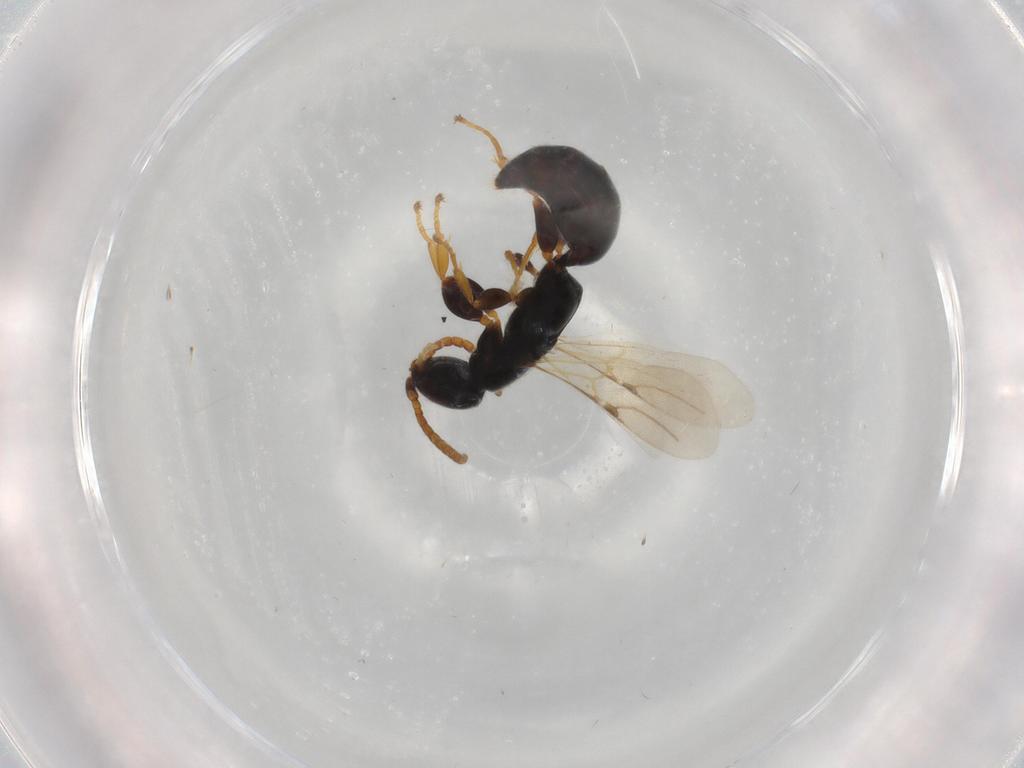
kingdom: Animalia
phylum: Arthropoda
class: Insecta
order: Hymenoptera
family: Bethylidae
